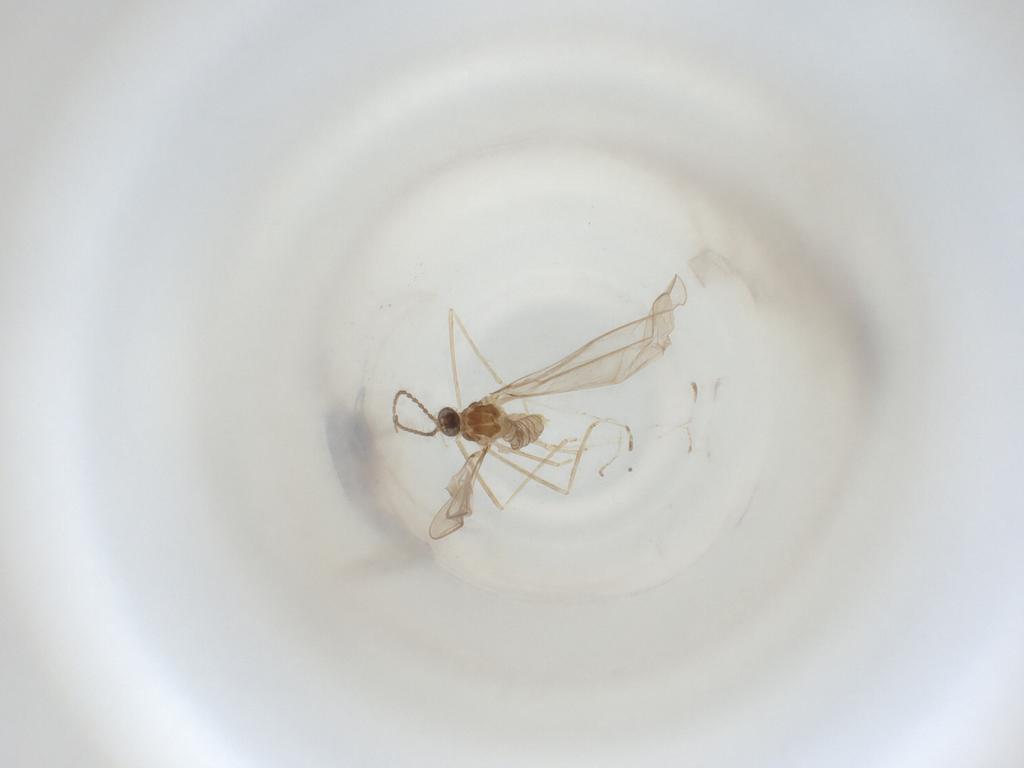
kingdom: Animalia
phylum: Arthropoda
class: Insecta
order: Diptera
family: Cecidomyiidae
